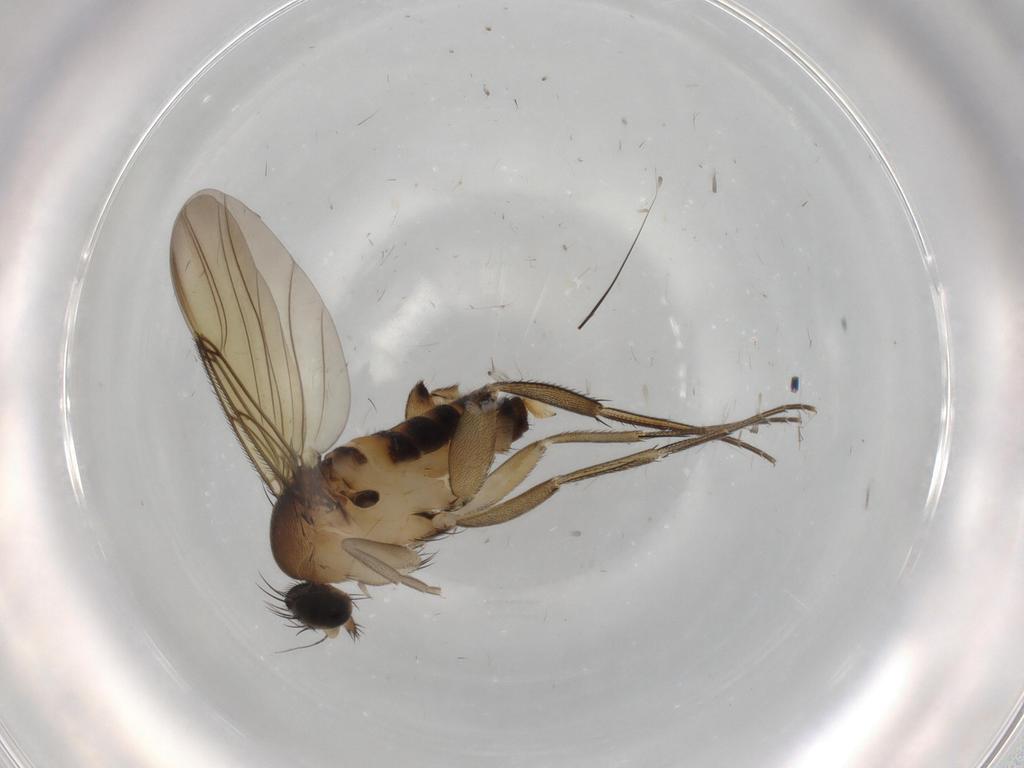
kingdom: Animalia
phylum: Arthropoda
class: Insecta
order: Diptera
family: Phoridae
